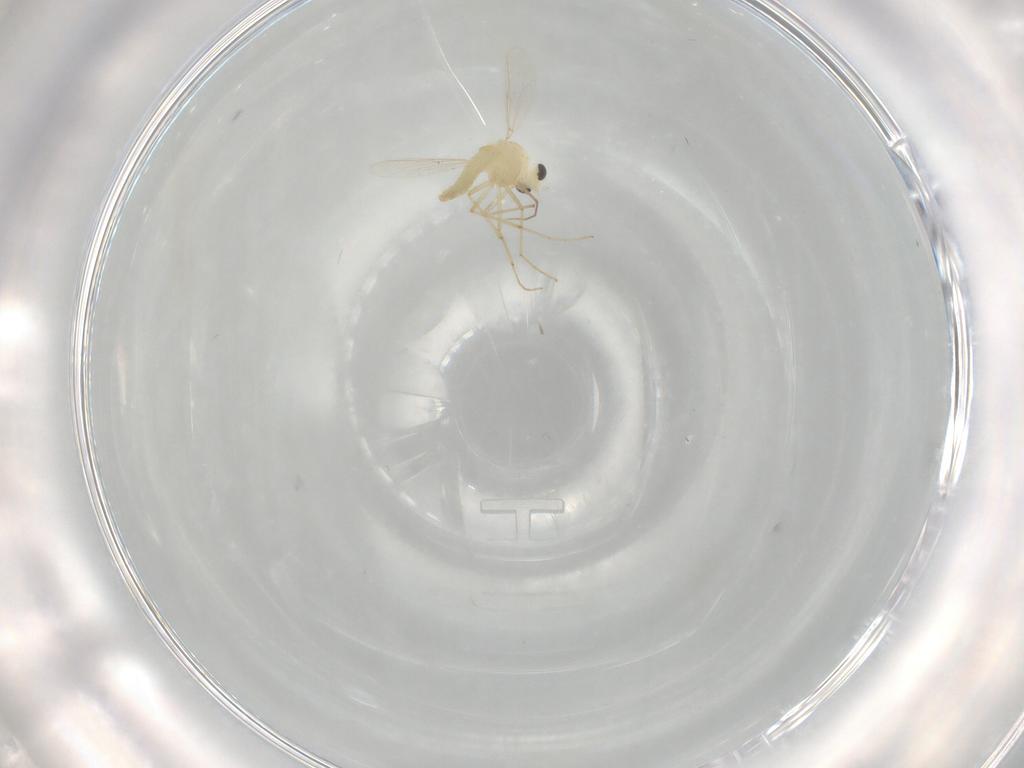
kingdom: Animalia
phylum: Arthropoda
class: Insecta
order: Diptera
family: Chironomidae
